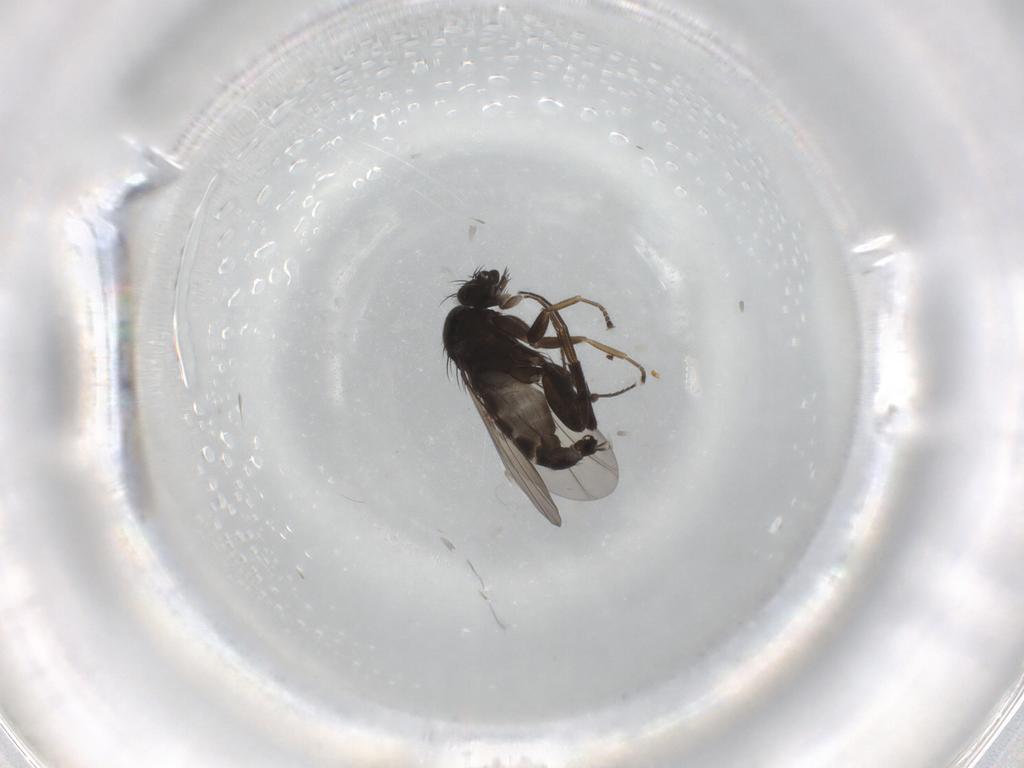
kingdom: Animalia
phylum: Arthropoda
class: Insecta
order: Diptera
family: Phoridae
